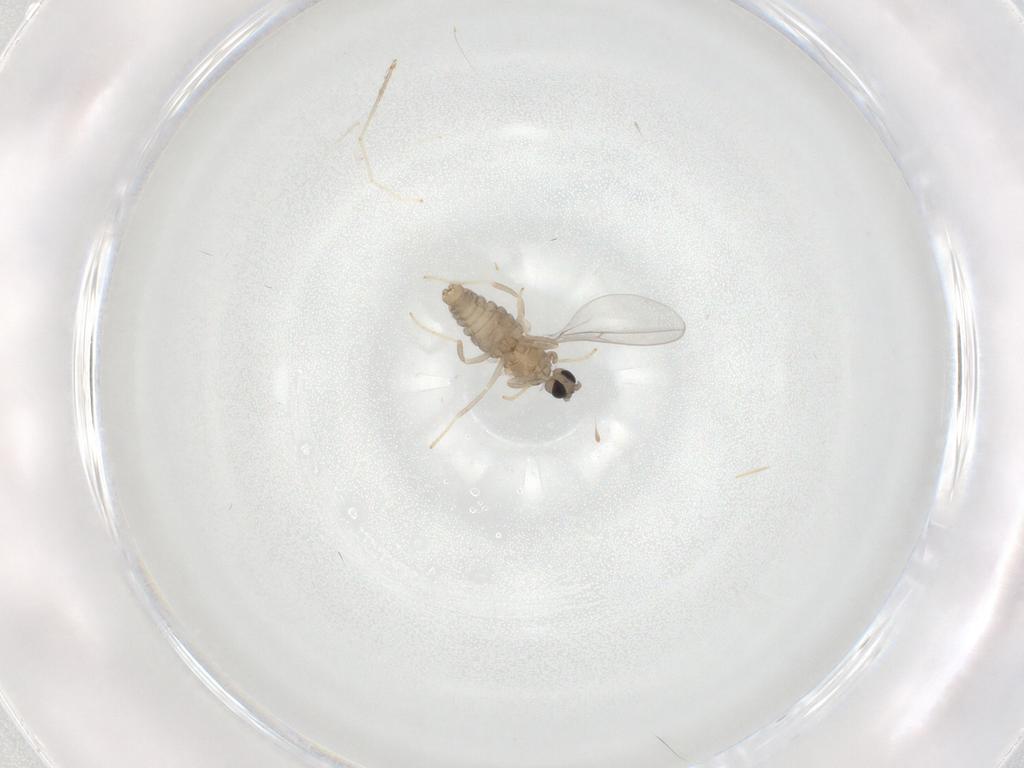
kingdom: Animalia
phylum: Arthropoda
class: Insecta
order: Diptera
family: Cecidomyiidae
